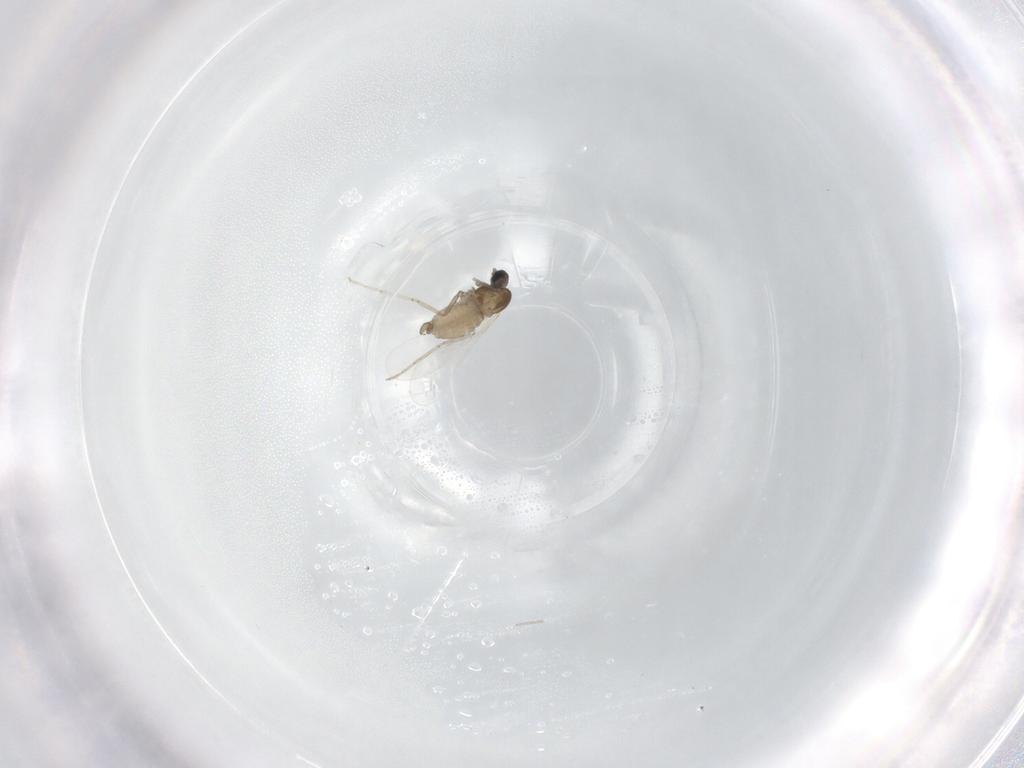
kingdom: Animalia
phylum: Arthropoda
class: Insecta
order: Diptera
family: Cecidomyiidae
